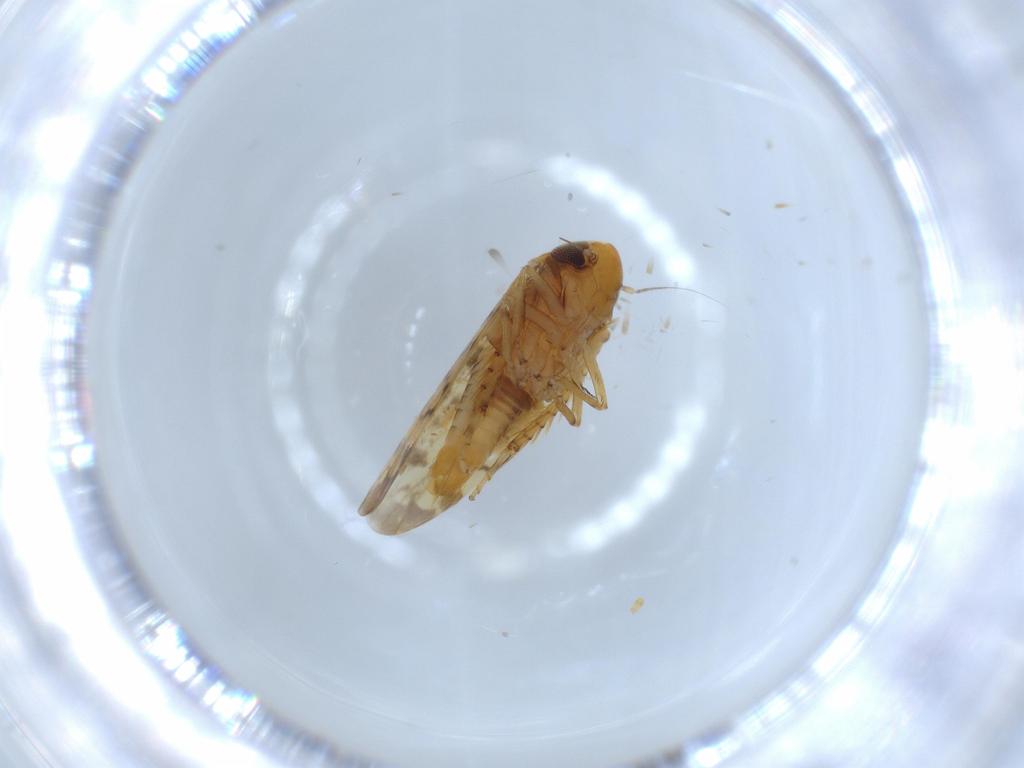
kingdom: Animalia
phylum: Arthropoda
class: Insecta
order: Hemiptera
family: Cicadellidae
